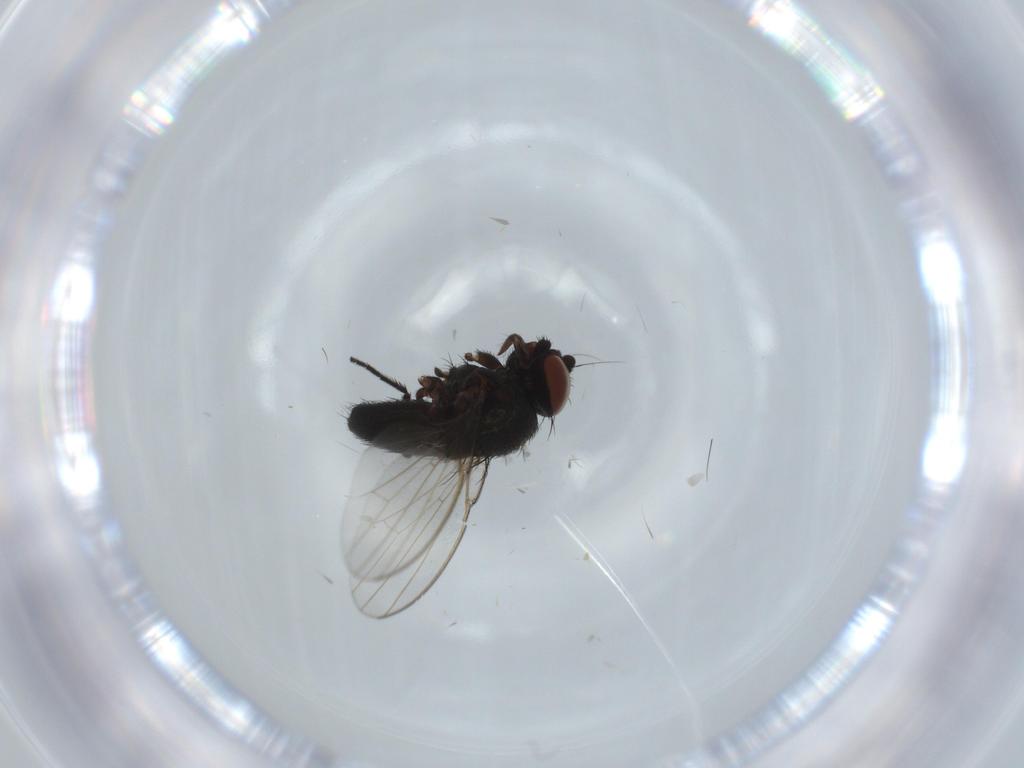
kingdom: Animalia
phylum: Arthropoda
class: Insecta
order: Diptera
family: Milichiidae
